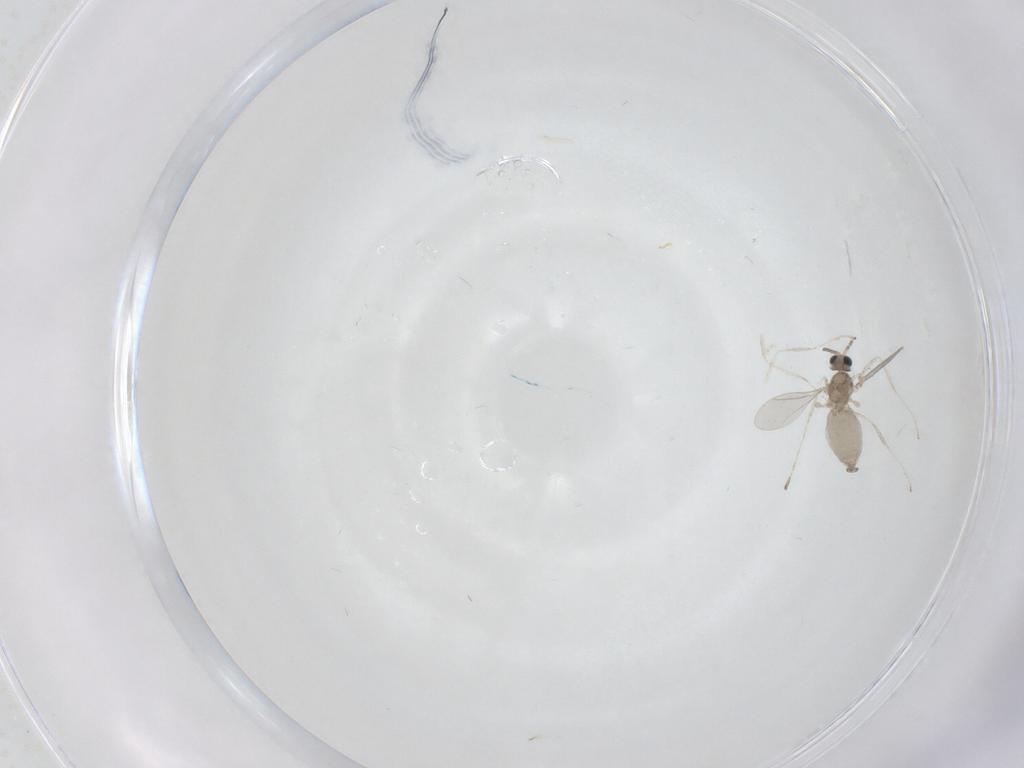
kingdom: Animalia
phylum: Arthropoda
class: Insecta
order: Diptera
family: Cecidomyiidae
